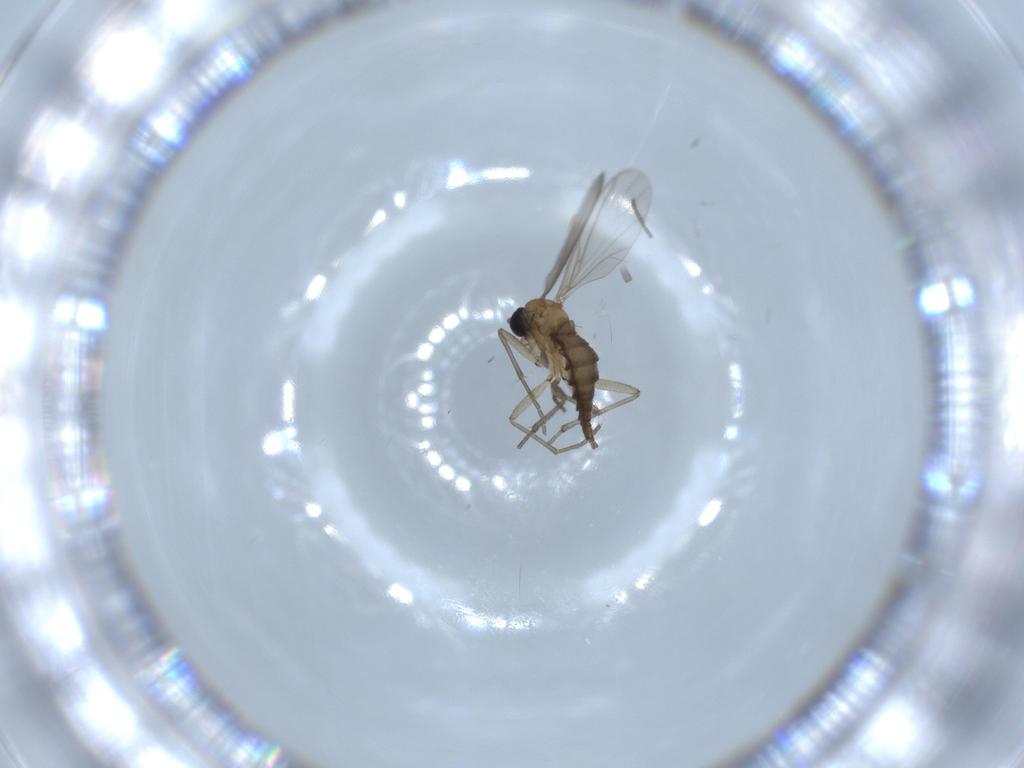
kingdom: Animalia
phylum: Arthropoda
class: Insecta
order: Diptera
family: Sciaridae
